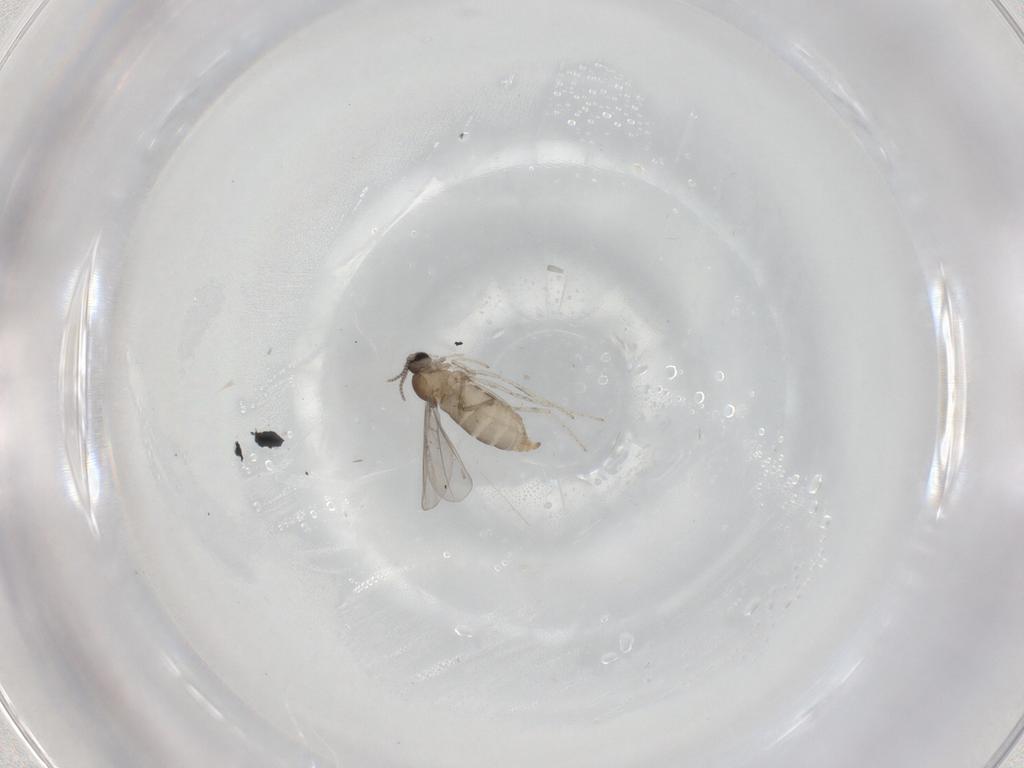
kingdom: Animalia
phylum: Arthropoda
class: Insecta
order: Diptera
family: Cecidomyiidae
